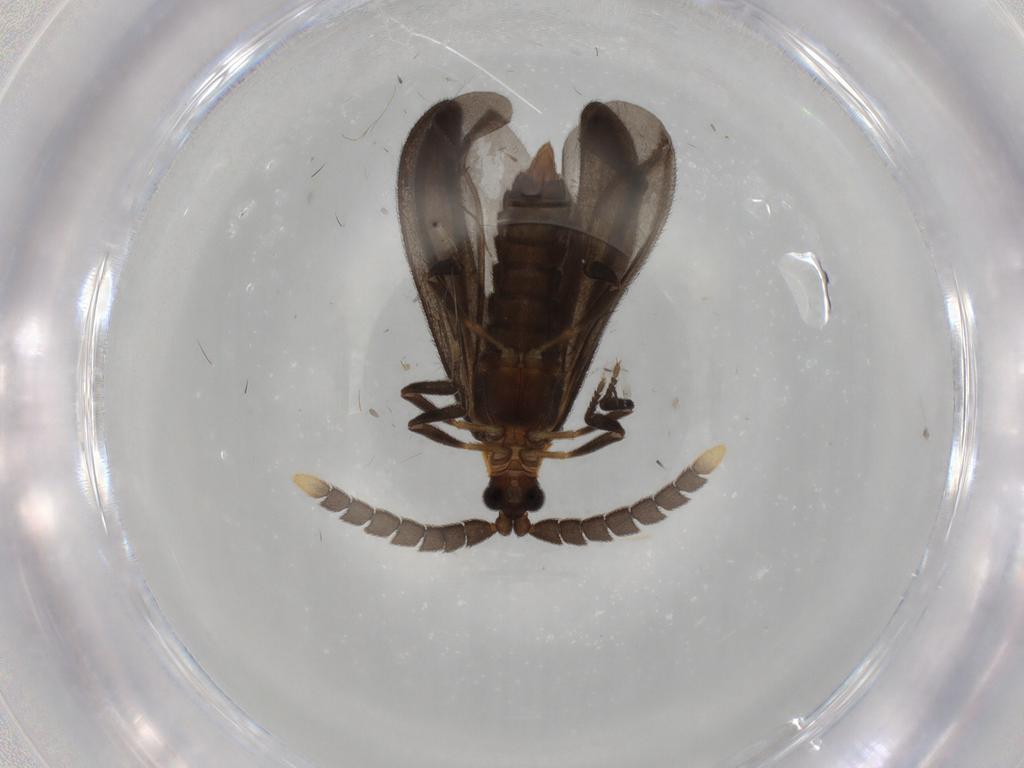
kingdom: Animalia
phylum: Arthropoda
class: Insecta
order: Coleoptera
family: Lycidae
